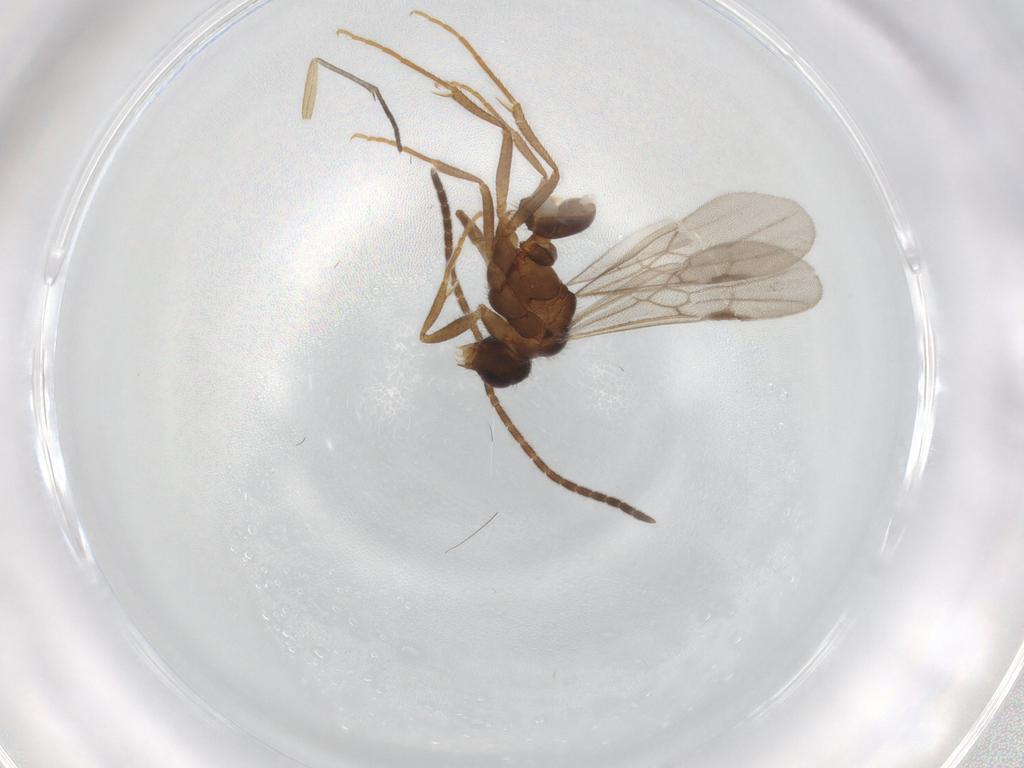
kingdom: Animalia
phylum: Arthropoda
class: Insecta
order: Hymenoptera
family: Formicidae
